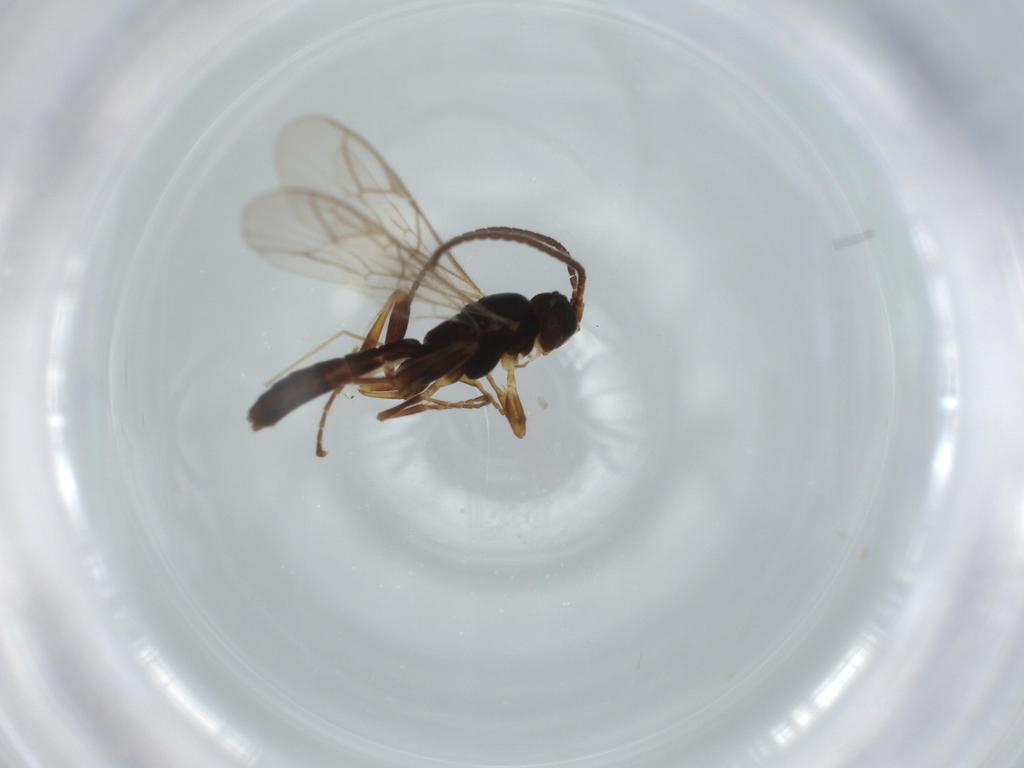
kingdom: Animalia
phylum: Arthropoda
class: Insecta
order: Hymenoptera
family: Ichneumonidae
